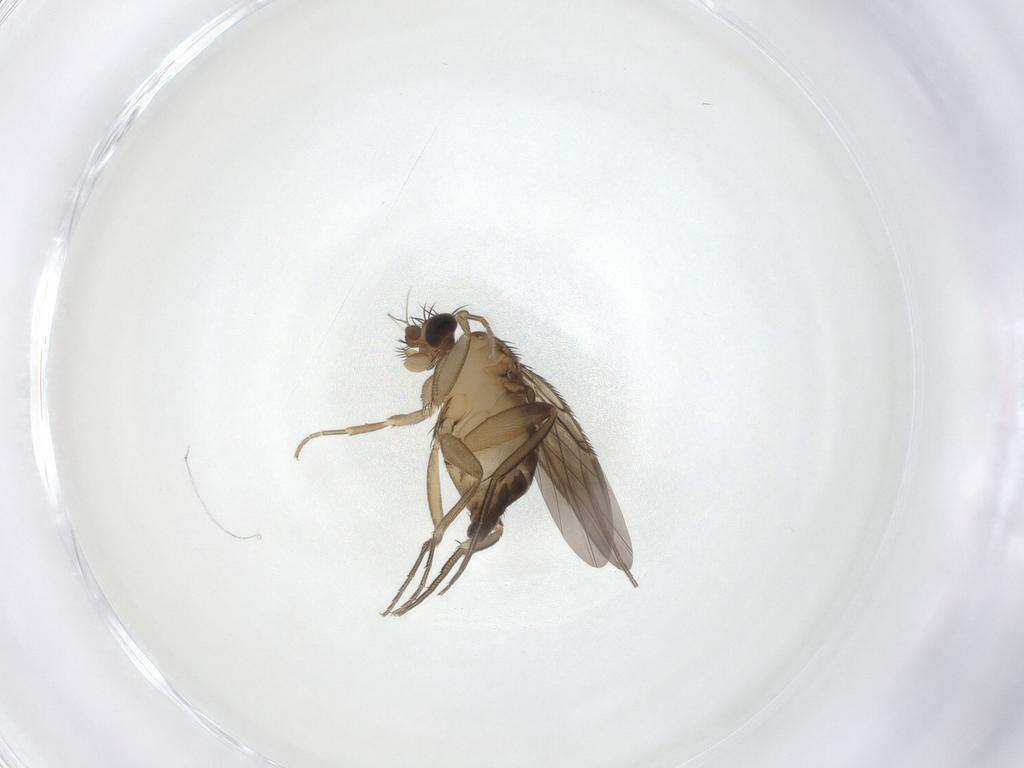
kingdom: Animalia
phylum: Arthropoda
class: Insecta
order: Diptera
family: Phoridae
